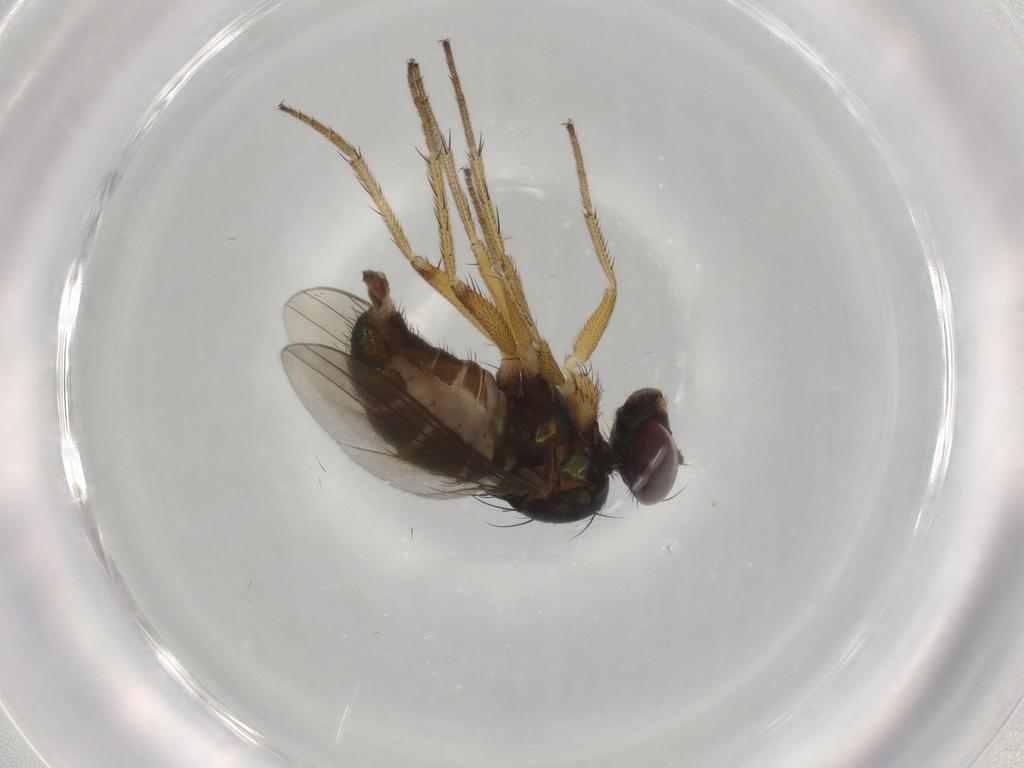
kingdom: Animalia
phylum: Arthropoda
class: Insecta
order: Diptera
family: Dolichopodidae
